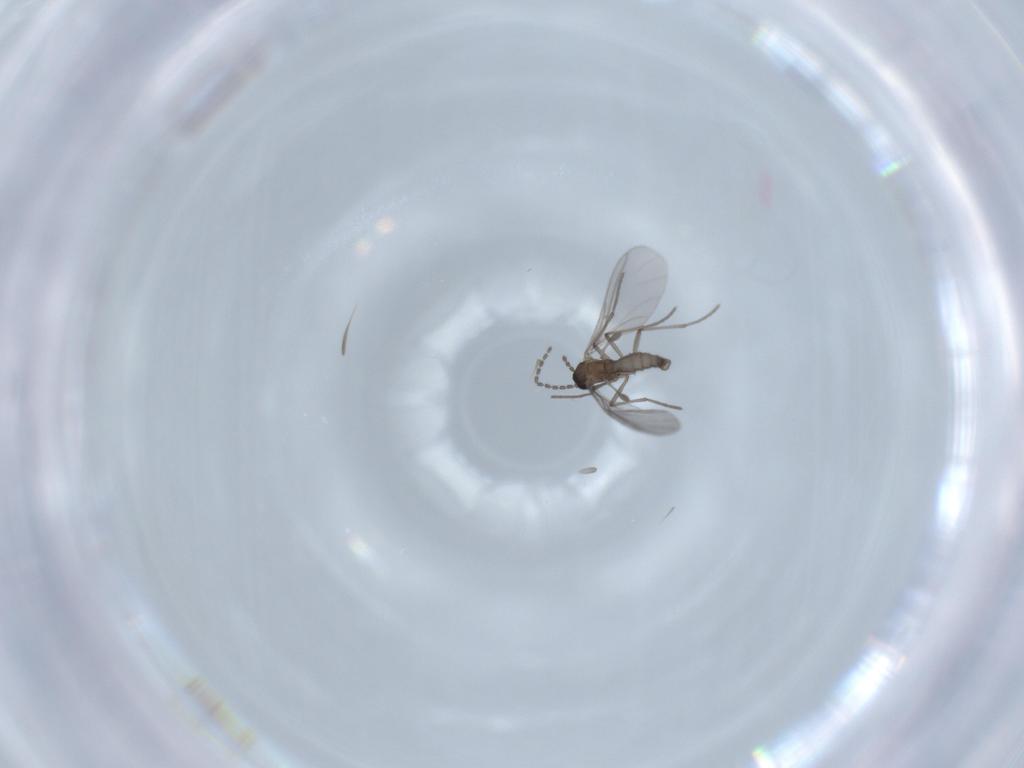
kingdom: Animalia
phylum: Arthropoda
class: Insecta
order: Diptera
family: Sciaridae
